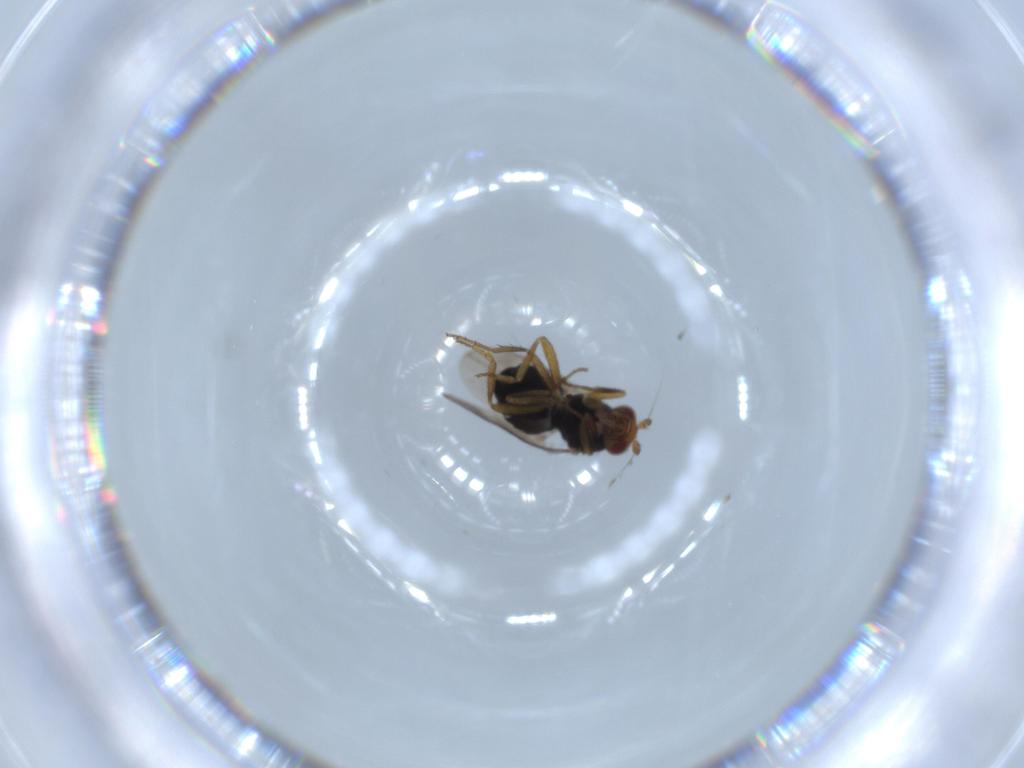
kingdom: Animalia
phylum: Arthropoda
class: Insecta
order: Diptera
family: Sphaeroceridae
